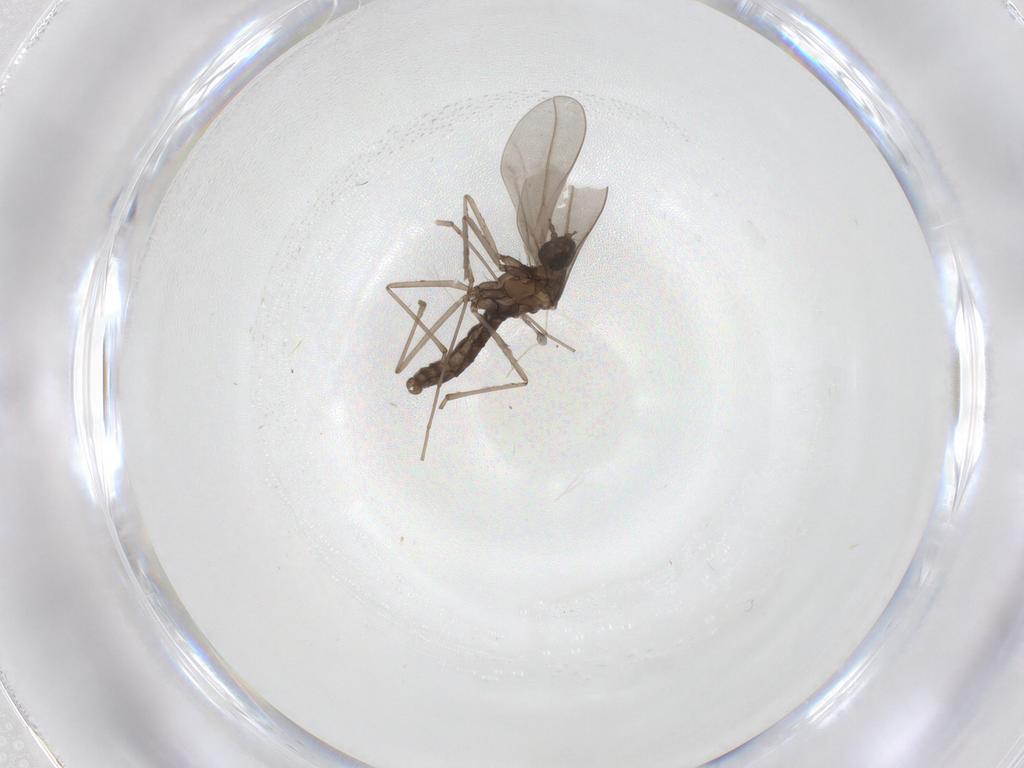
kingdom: Animalia
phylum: Arthropoda
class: Insecta
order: Diptera
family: Cecidomyiidae
